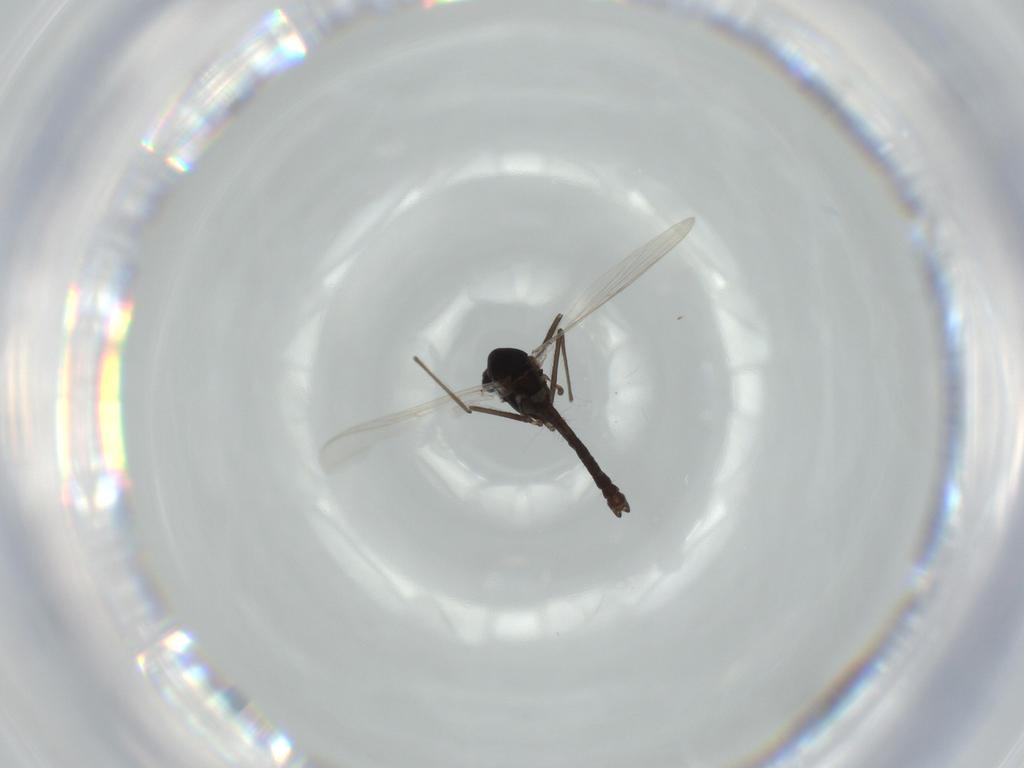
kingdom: Animalia
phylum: Arthropoda
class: Insecta
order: Diptera
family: Chironomidae
